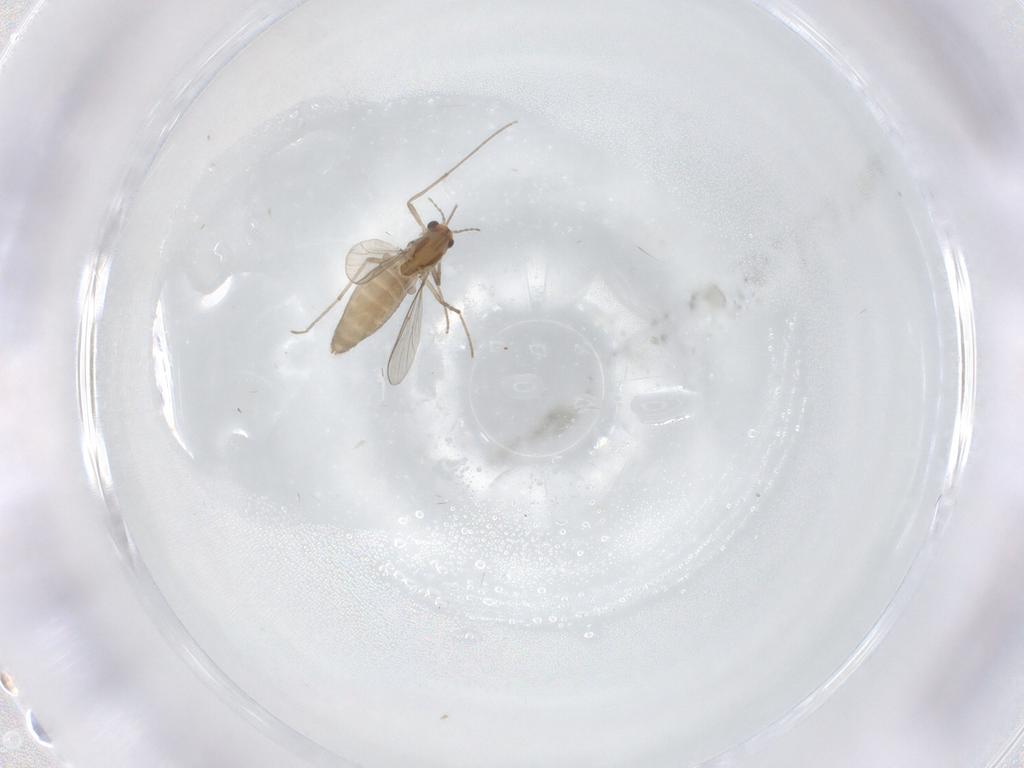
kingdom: Animalia
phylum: Arthropoda
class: Insecta
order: Diptera
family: Chironomidae
